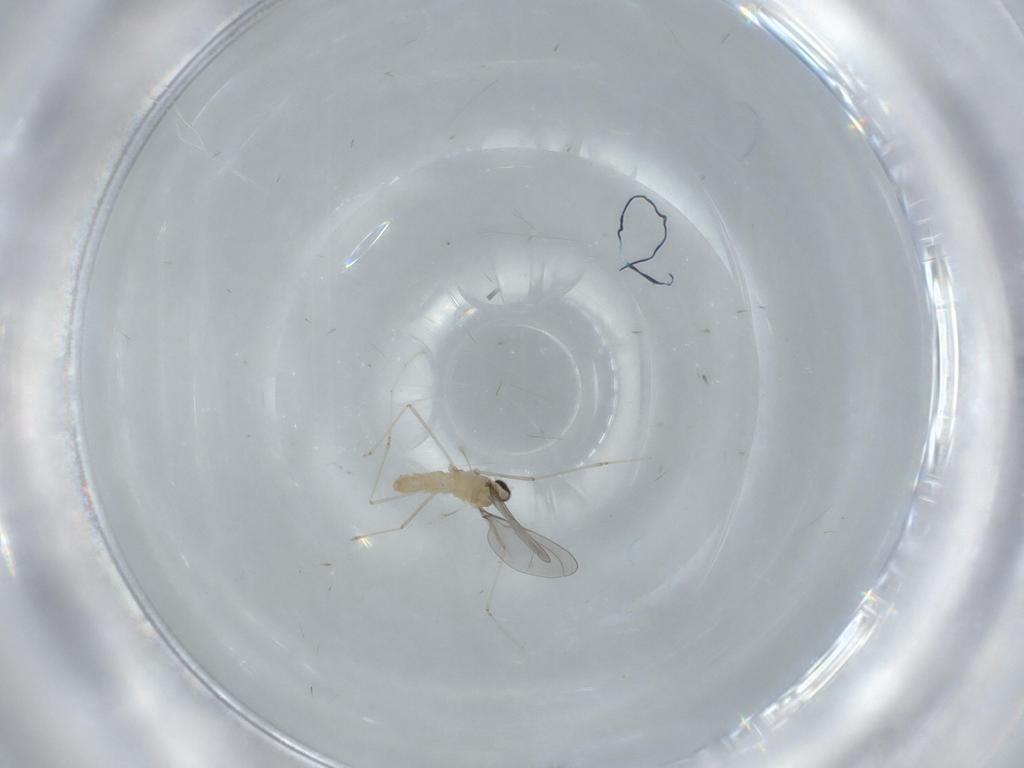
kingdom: Animalia
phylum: Arthropoda
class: Insecta
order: Diptera
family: Cecidomyiidae
